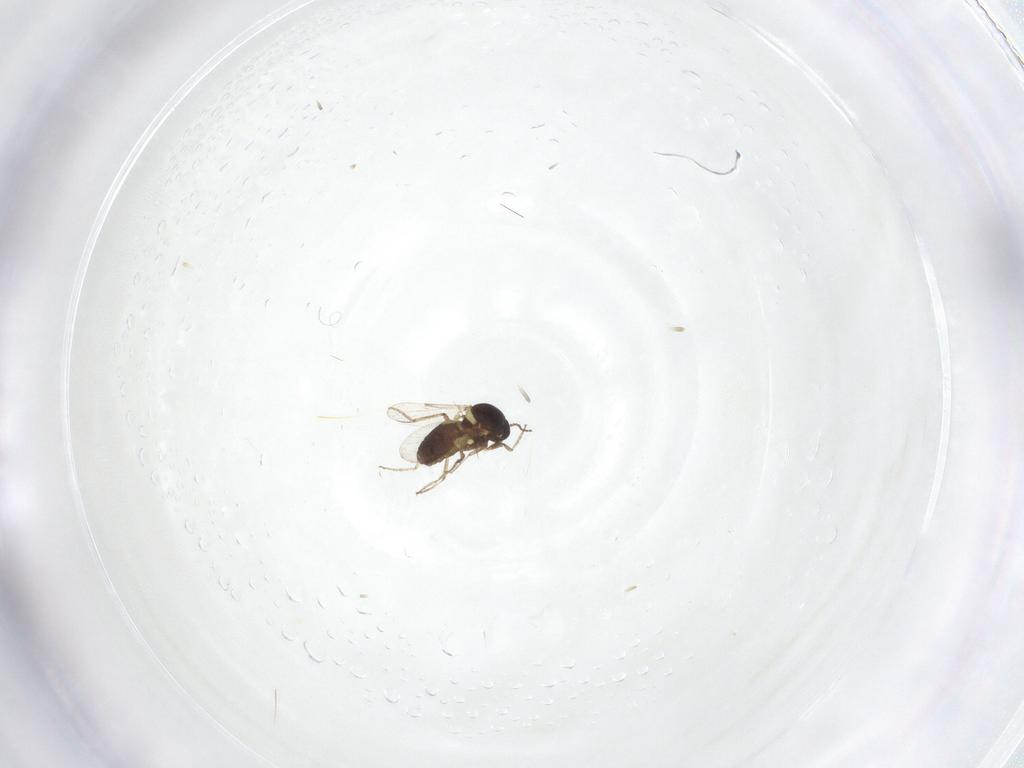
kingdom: Animalia
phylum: Arthropoda
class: Insecta
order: Diptera
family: Ceratopogonidae
